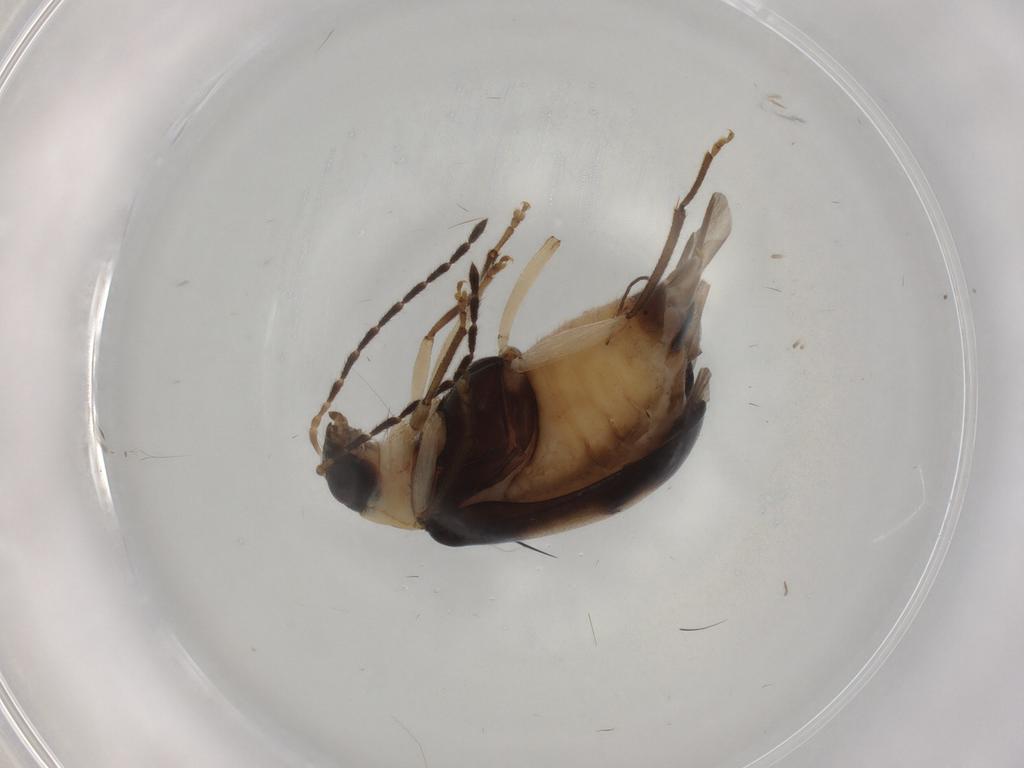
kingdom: Animalia
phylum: Arthropoda
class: Insecta
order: Coleoptera
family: Chrysomelidae
